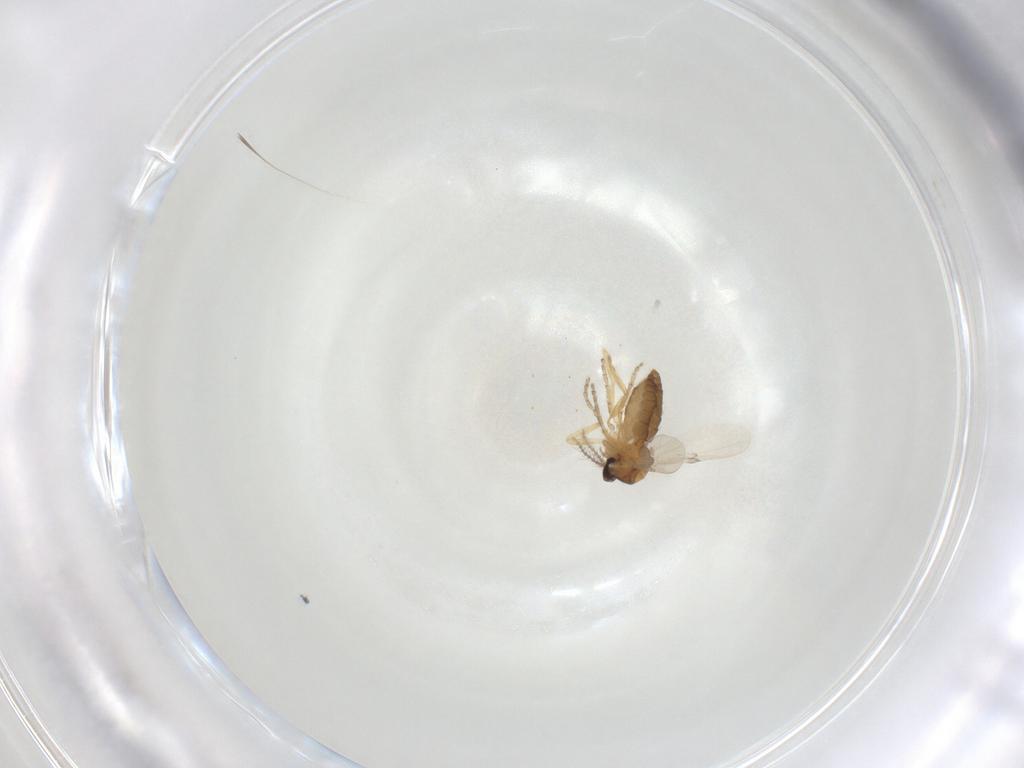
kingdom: Animalia
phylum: Arthropoda
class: Insecta
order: Diptera
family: Ceratopogonidae
